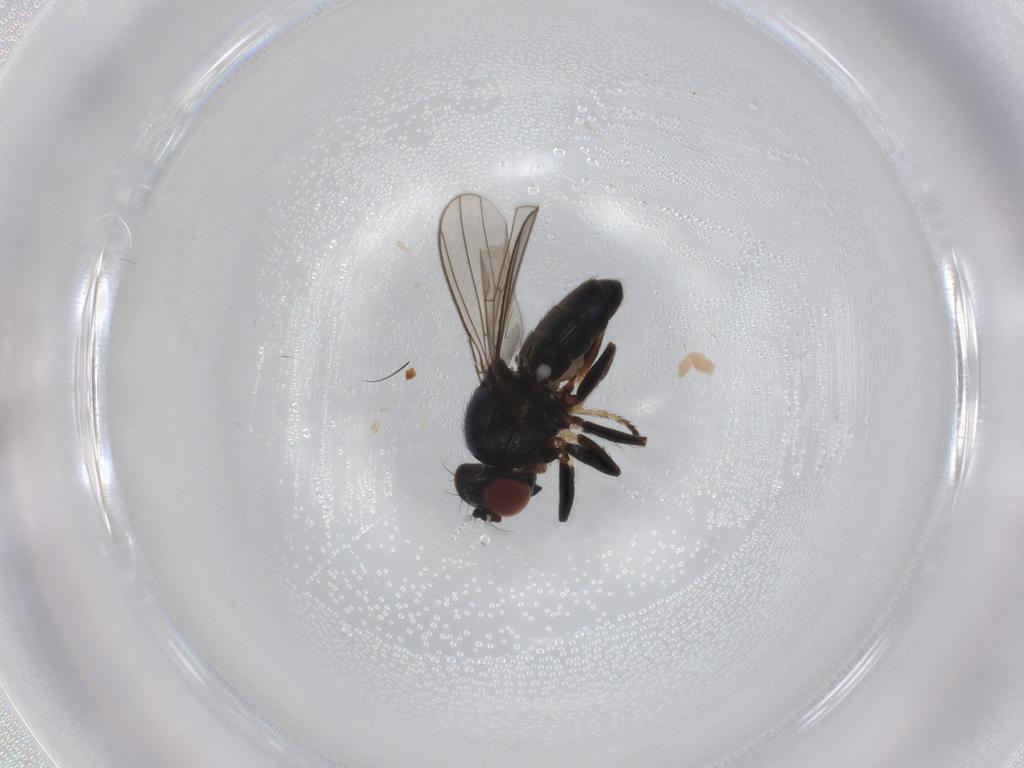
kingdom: Animalia
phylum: Arthropoda
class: Insecta
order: Diptera
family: Ephydridae
